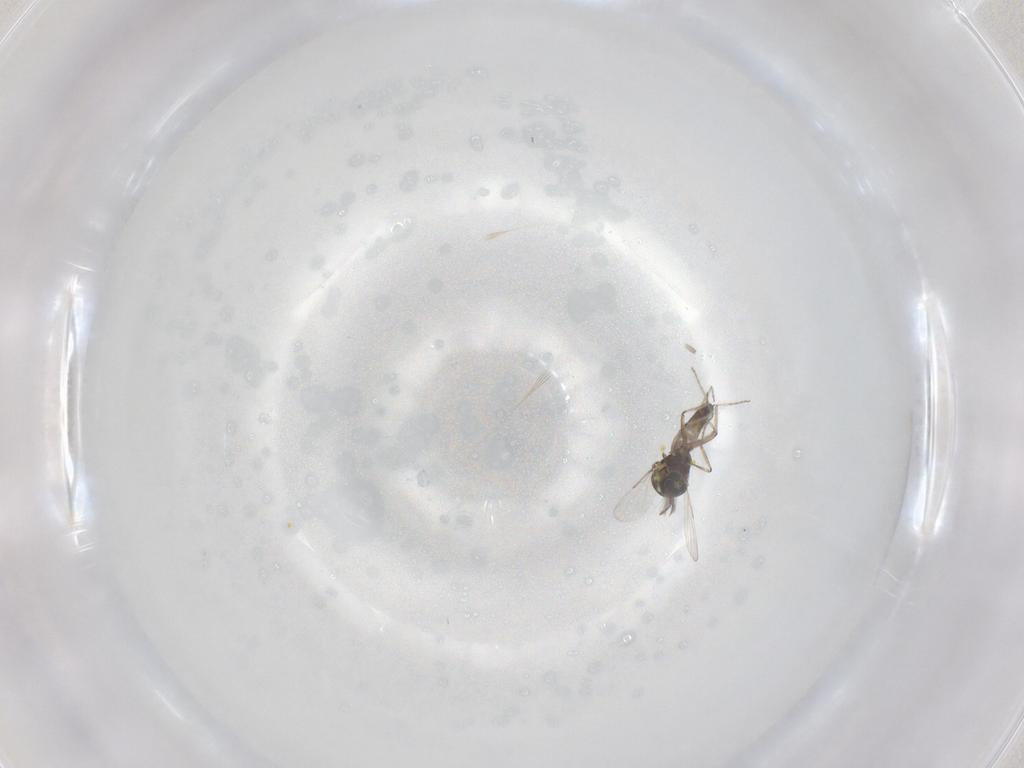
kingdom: Animalia
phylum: Arthropoda
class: Insecta
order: Diptera
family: Ceratopogonidae
